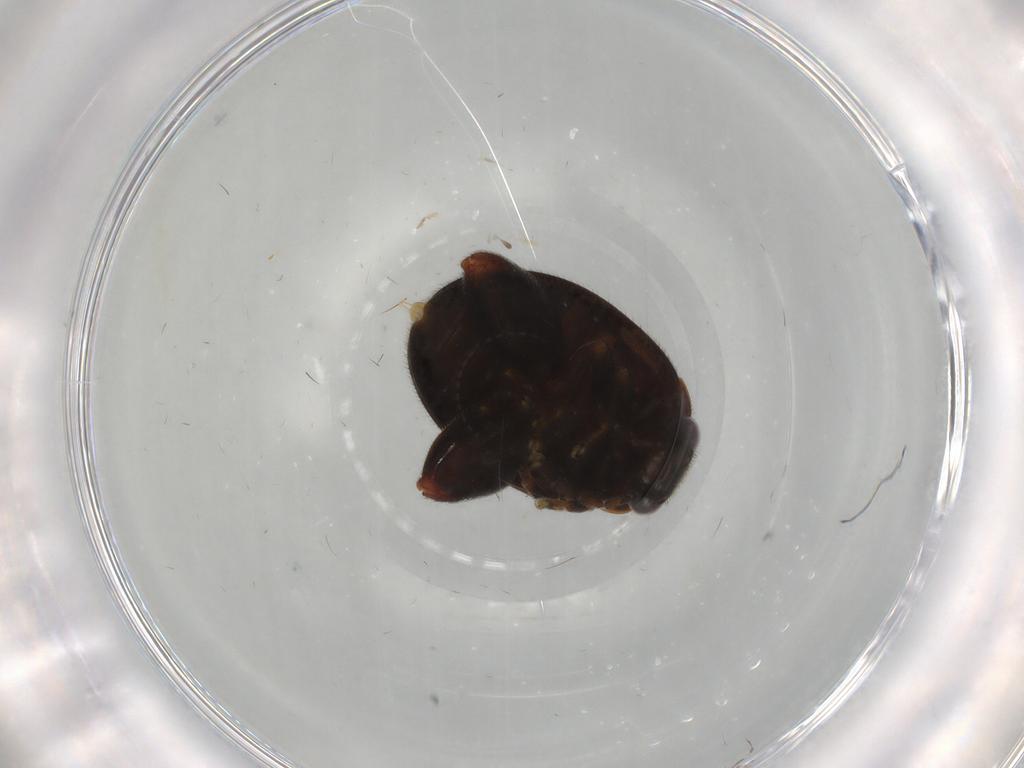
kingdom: Animalia
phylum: Arthropoda
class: Insecta
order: Coleoptera
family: Scirtidae
